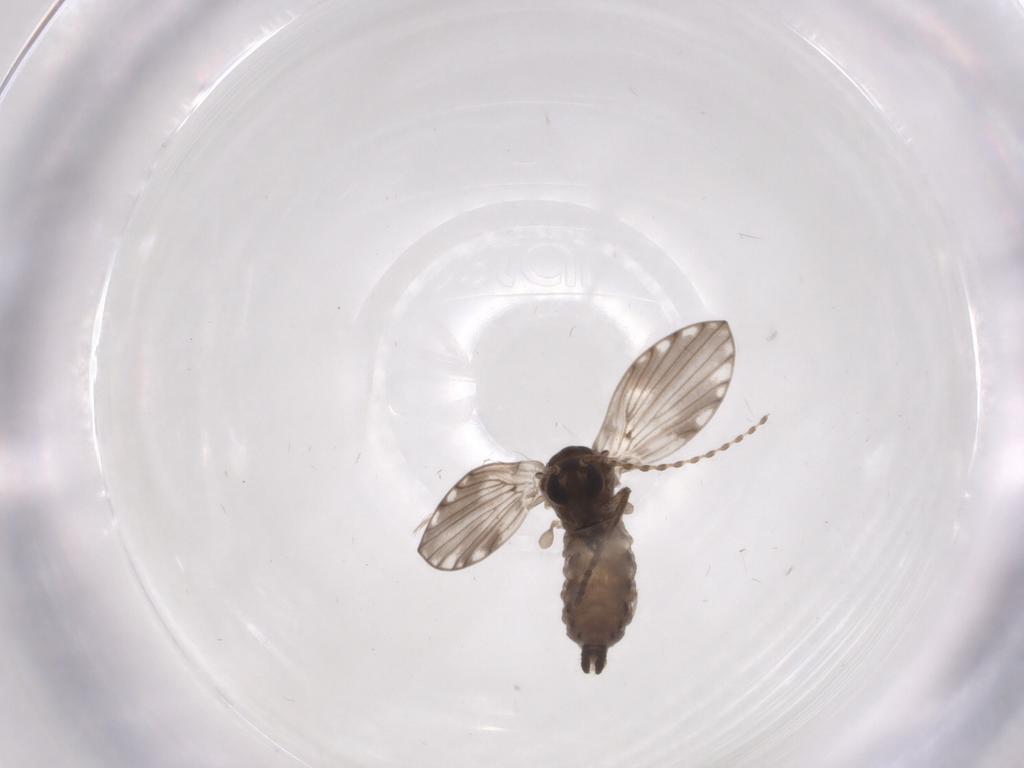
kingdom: Animalia
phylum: Arthropoda
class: Insecta
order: Diptera
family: Psychodidae
